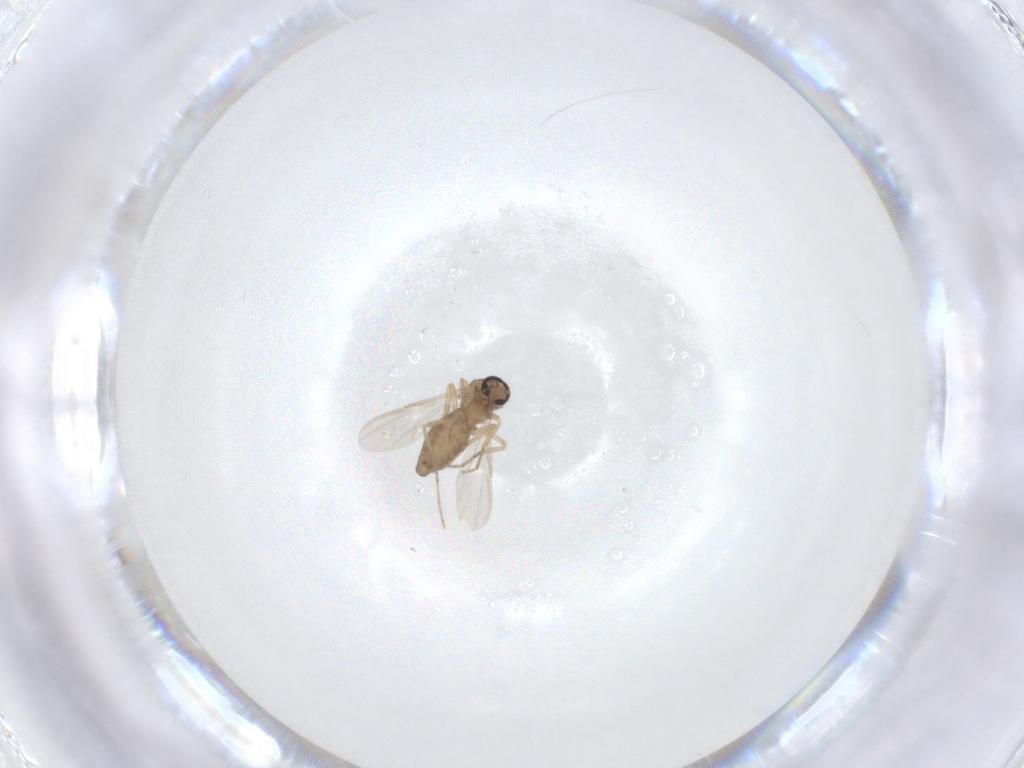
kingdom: Animalia
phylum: Arthropoda
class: Insecta
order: Diptera
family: Ceratopogonidae
